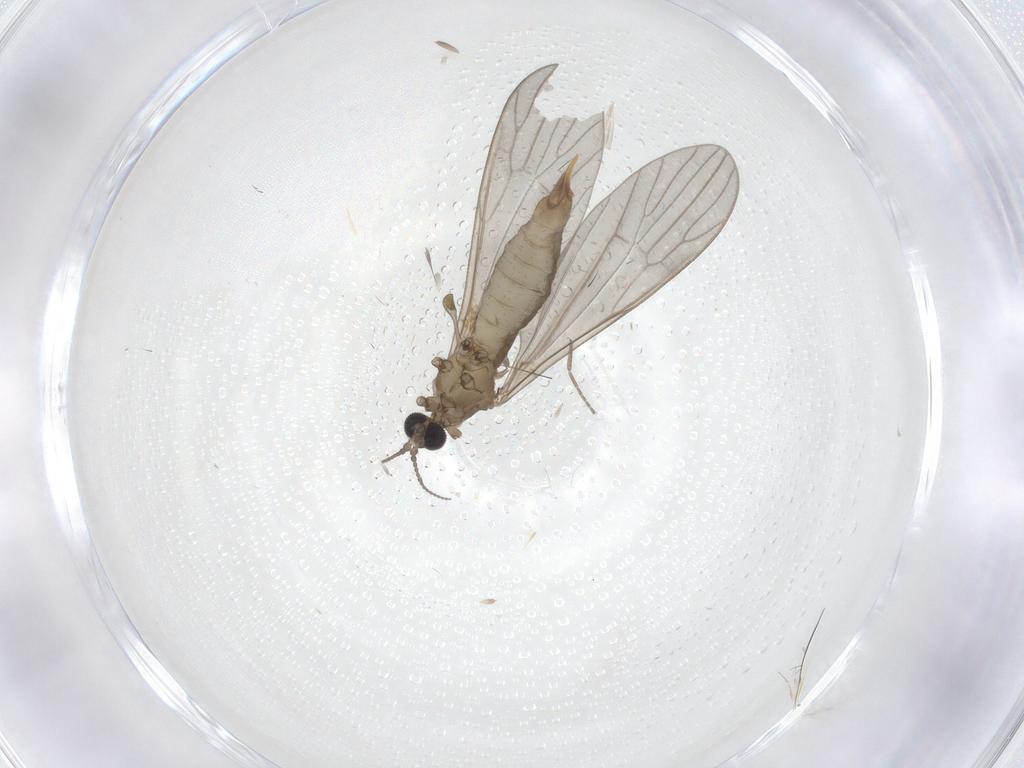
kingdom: Animalia
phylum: Arthropoda
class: Insecta
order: Diptera
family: Limoniidae
